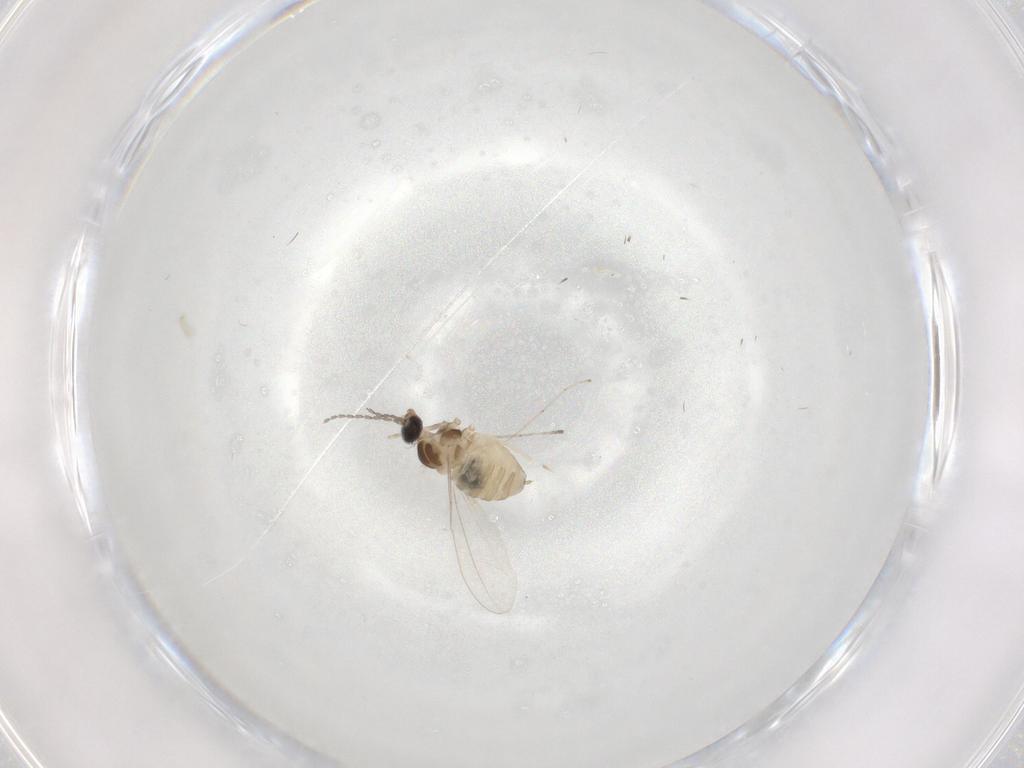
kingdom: Animalia
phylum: Arthropoda
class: Insecta
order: Diptera
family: Cecidomyiidae
